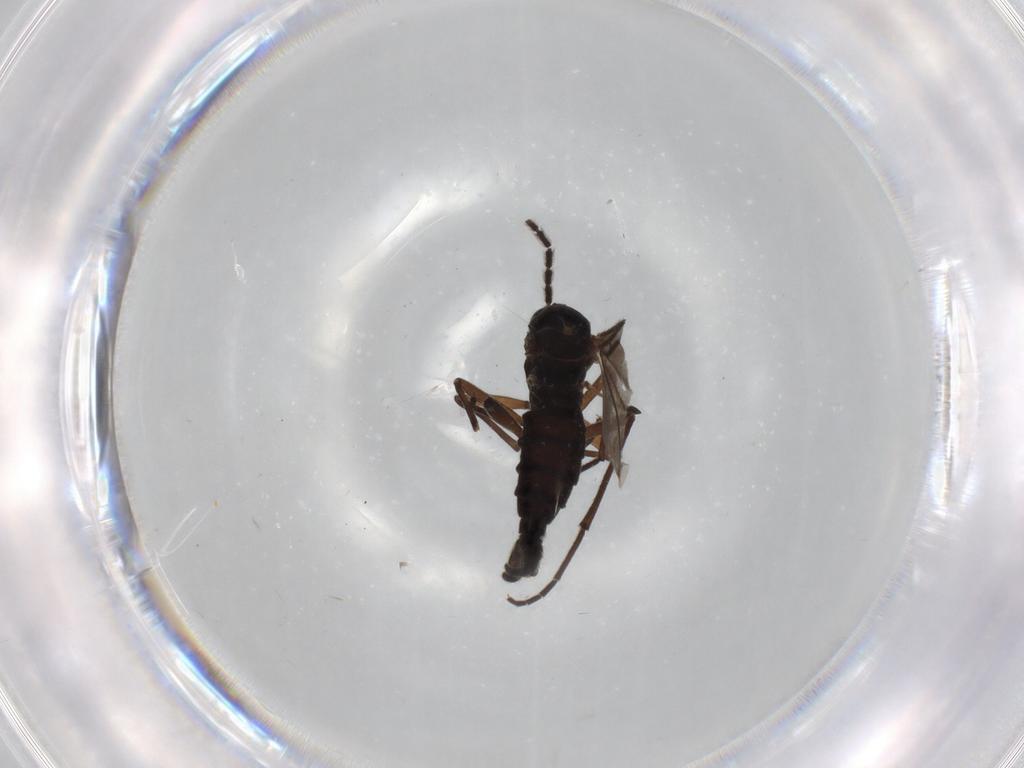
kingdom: Animalia
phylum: Arthropoda
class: Insecta
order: Diptera
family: Sciaridae
